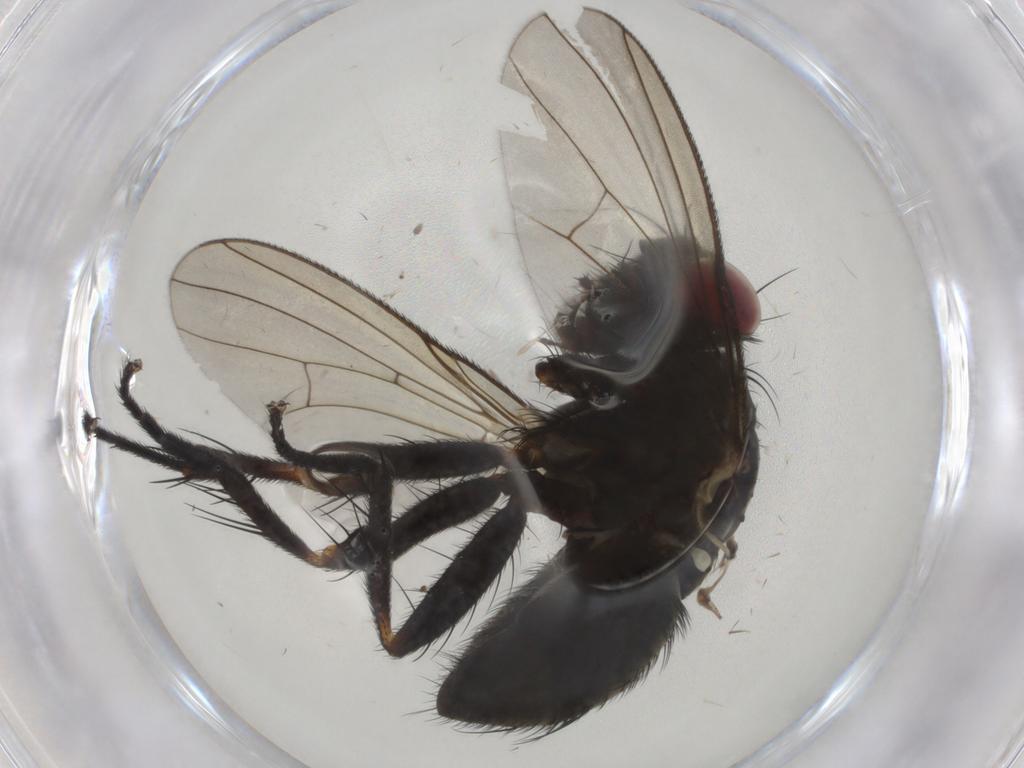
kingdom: Animalia
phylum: Arthropoda
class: Insecta
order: Diptera
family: Muscidae
